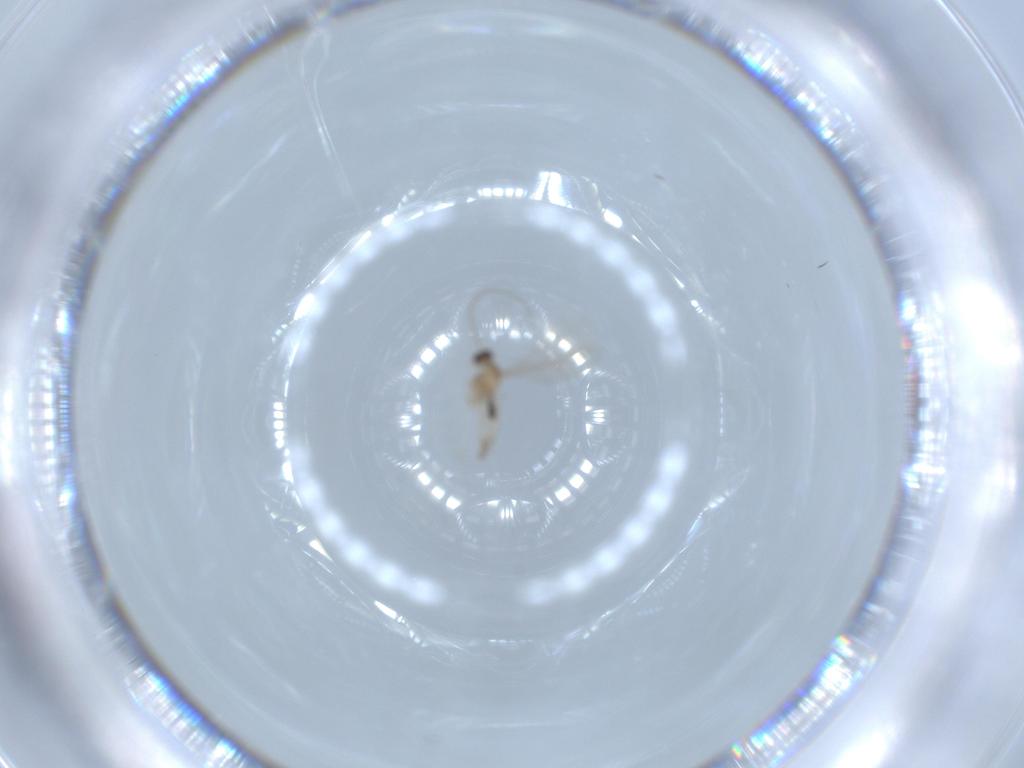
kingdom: Animalia
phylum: Arthropoda
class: Insecta
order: Diptera
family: Cecidomyiidae
